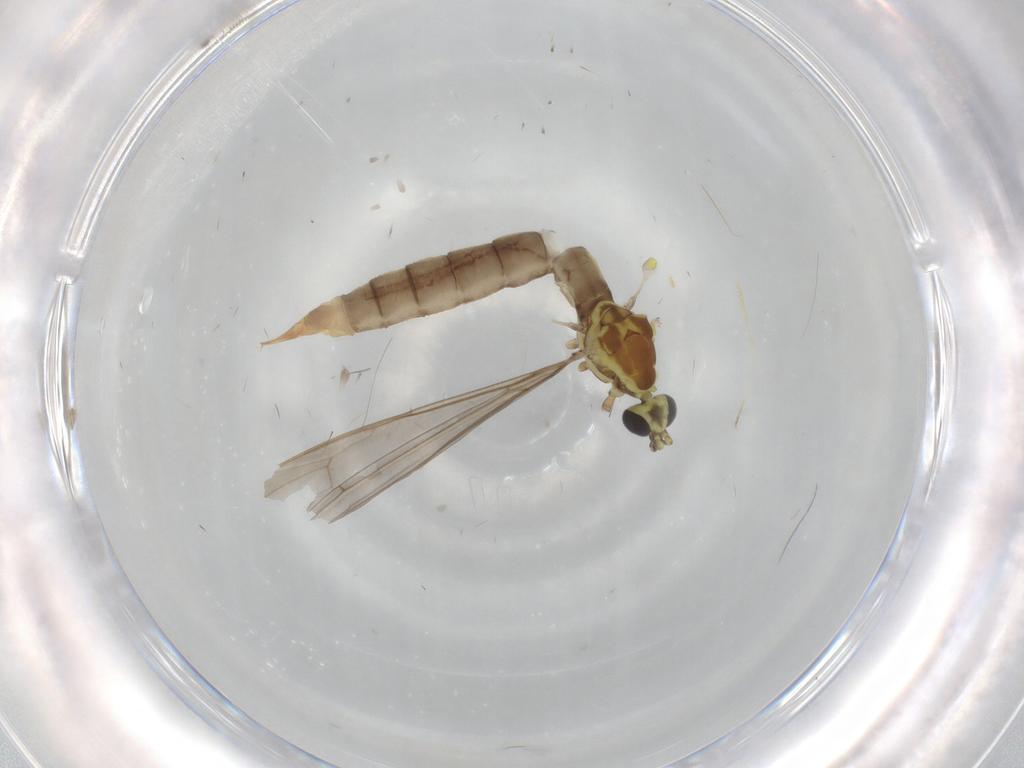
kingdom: Animalia
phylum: Arthropoda
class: Insecta
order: Diptera
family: Limoniidae
